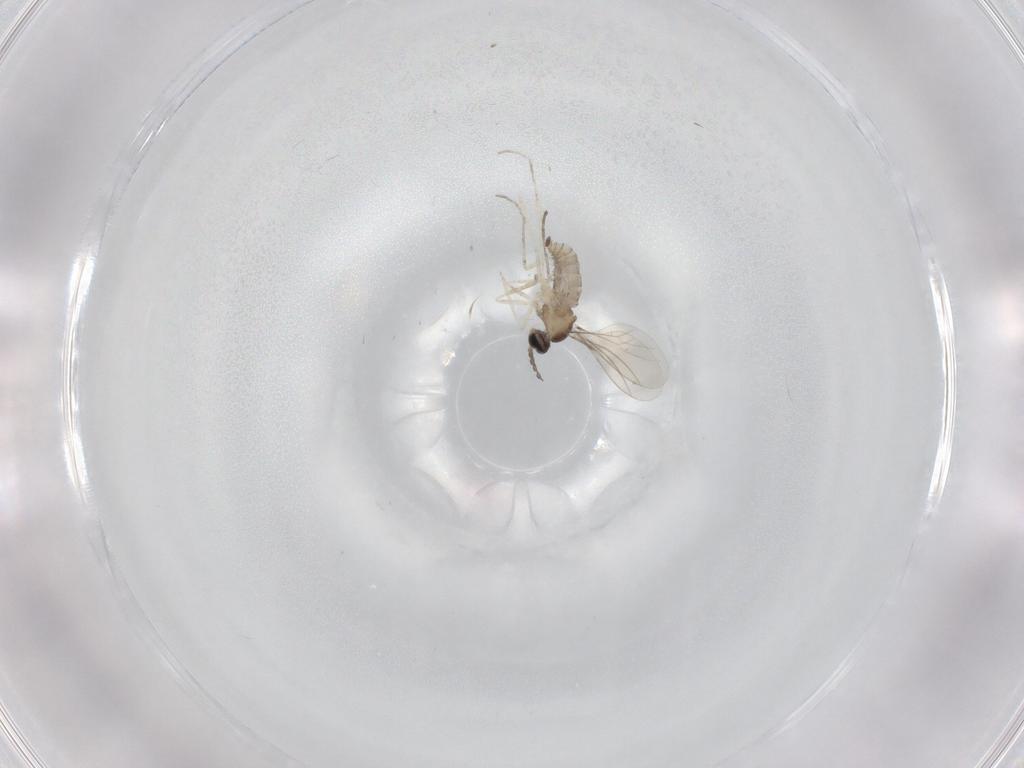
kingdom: Animalia
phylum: Arthropoda
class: Insecta
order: Diptera
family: Cecidomyiidae
